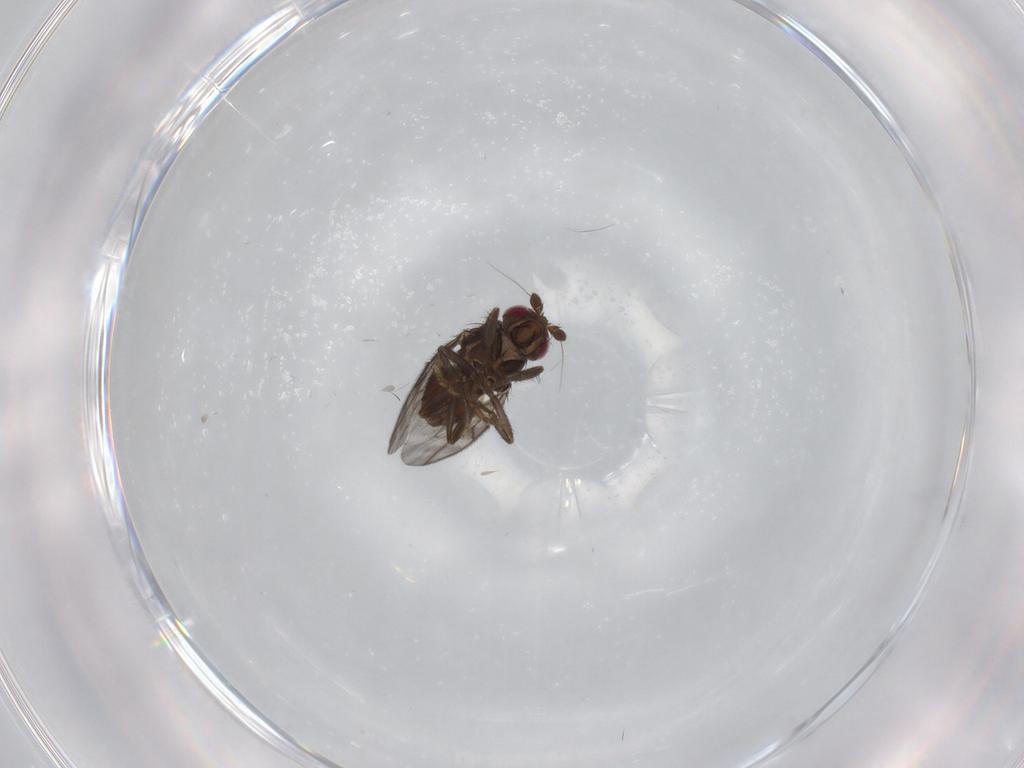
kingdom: Animalia
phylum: Arthropoda
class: Insecta
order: Diptera
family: Sphaeroceridae
